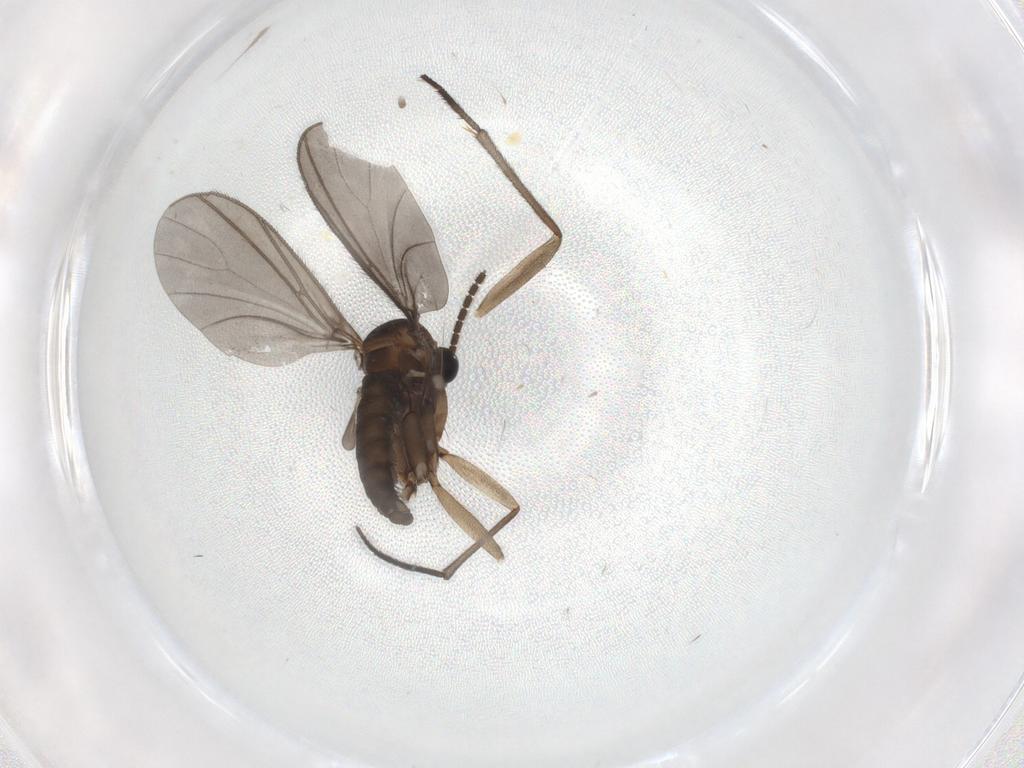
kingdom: Animalia
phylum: Arthropoda
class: Insecta
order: Diptera
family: Sciaridae
